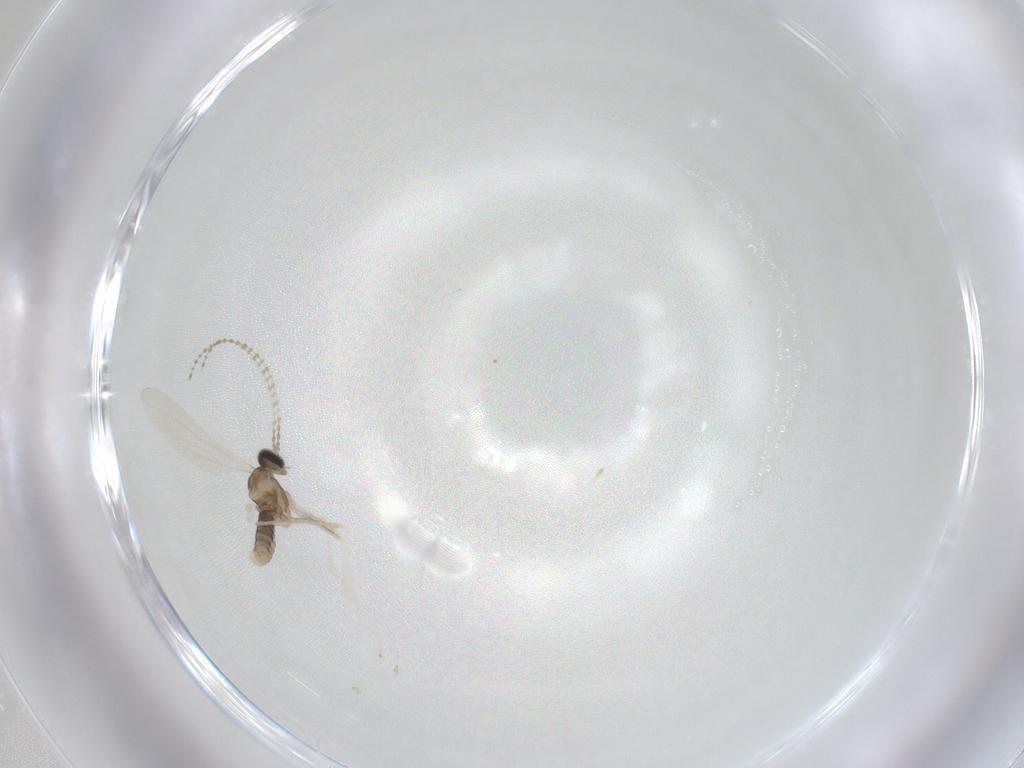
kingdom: Animalia
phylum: Arthropoda
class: Insecta
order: Diptera
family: Cecidomyiidae
